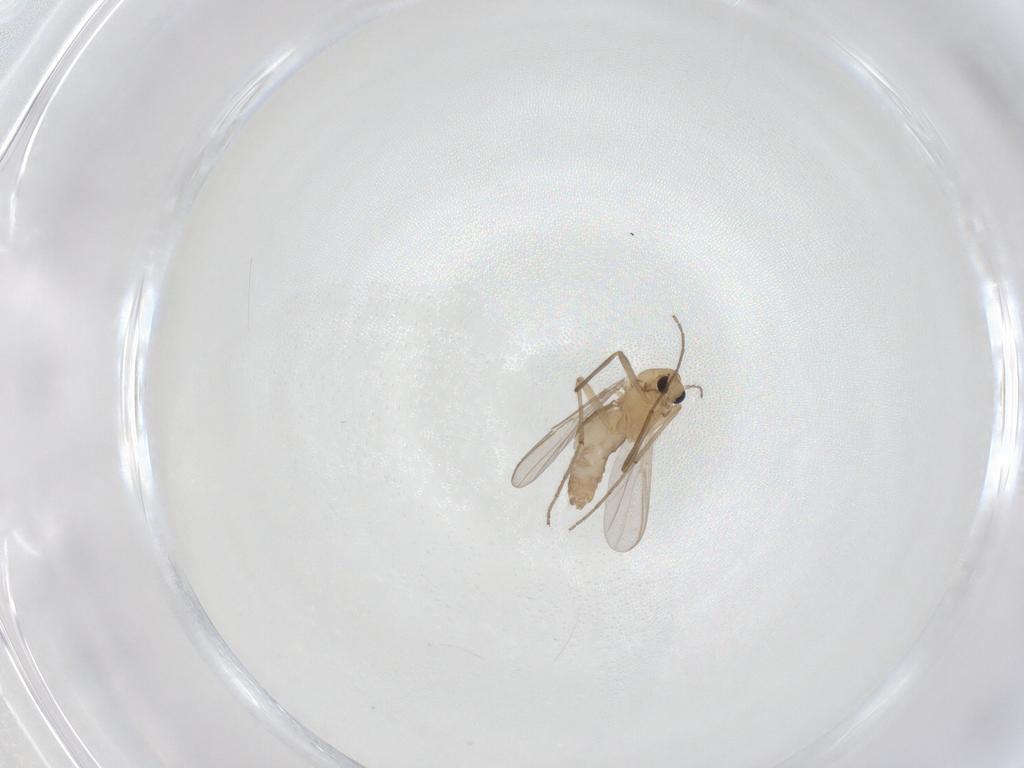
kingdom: Animalia
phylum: Arthropoda
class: Insecta
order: Diptera
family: Chironomidae
